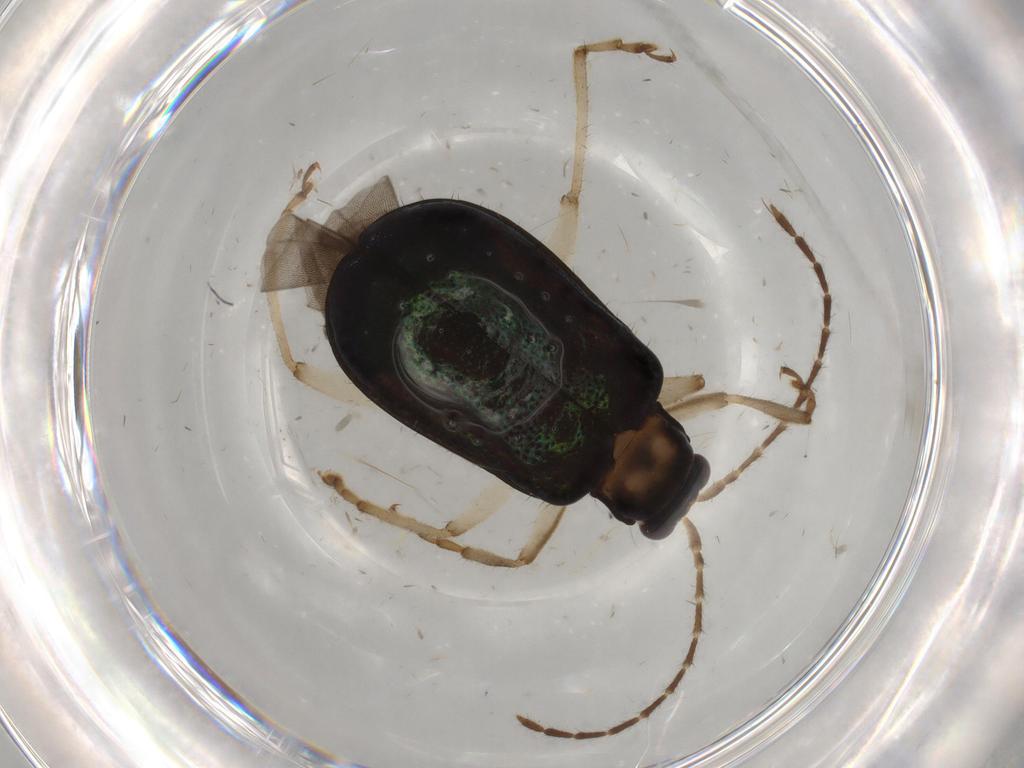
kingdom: Animalia
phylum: Arthropoda
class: Insecta
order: Coleoptera
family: Chrysomelidae
